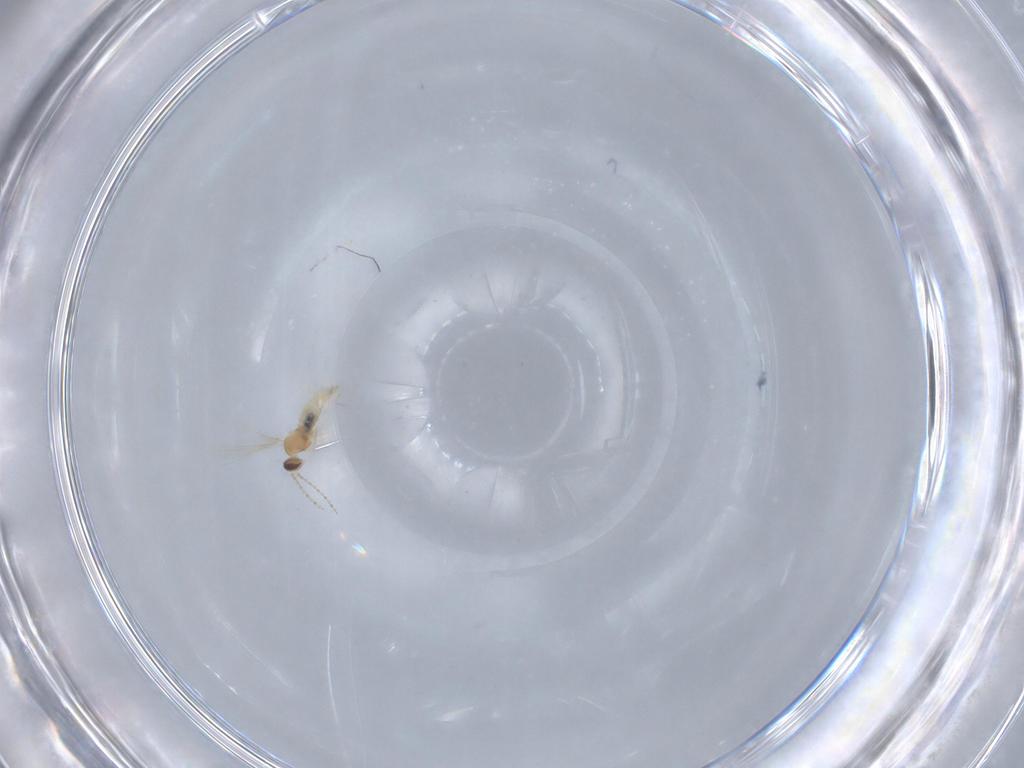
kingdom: Animalia
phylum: Arthropoda
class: Insecta
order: Diptera
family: Cecidomyiidae
